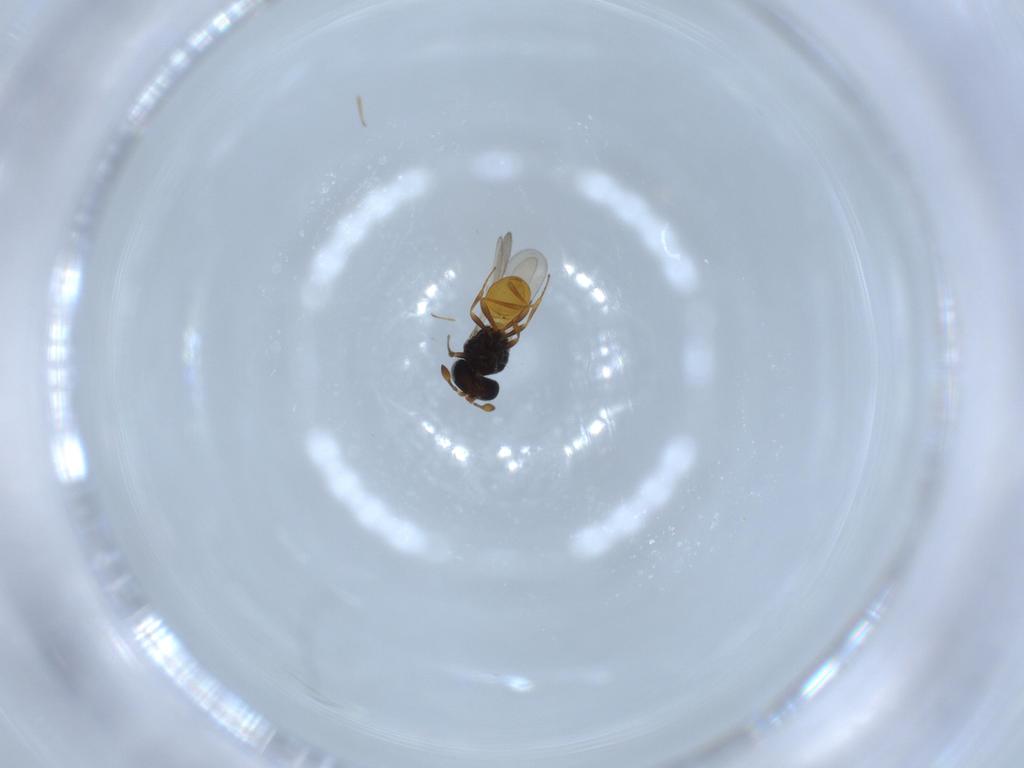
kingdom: Animalia
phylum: Arthropoda
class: Insecta
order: Hymenoptera
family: Scelionidae
